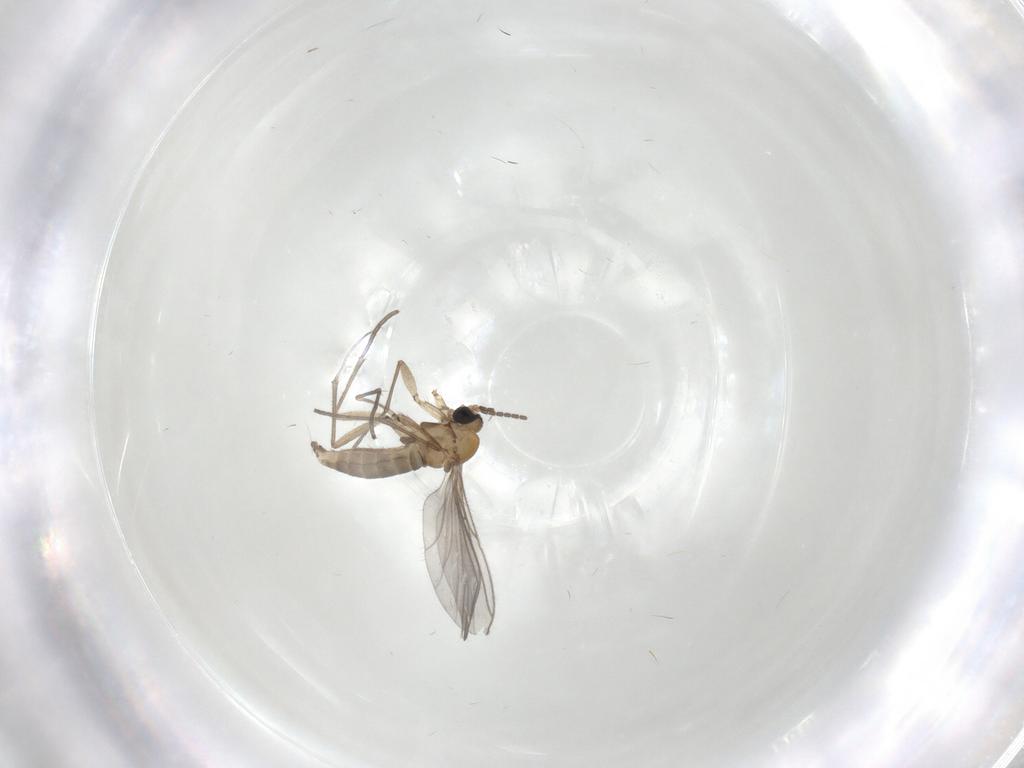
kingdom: Animalia
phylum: Arthropoda
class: Insecta
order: Diptera
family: Sciaridae
